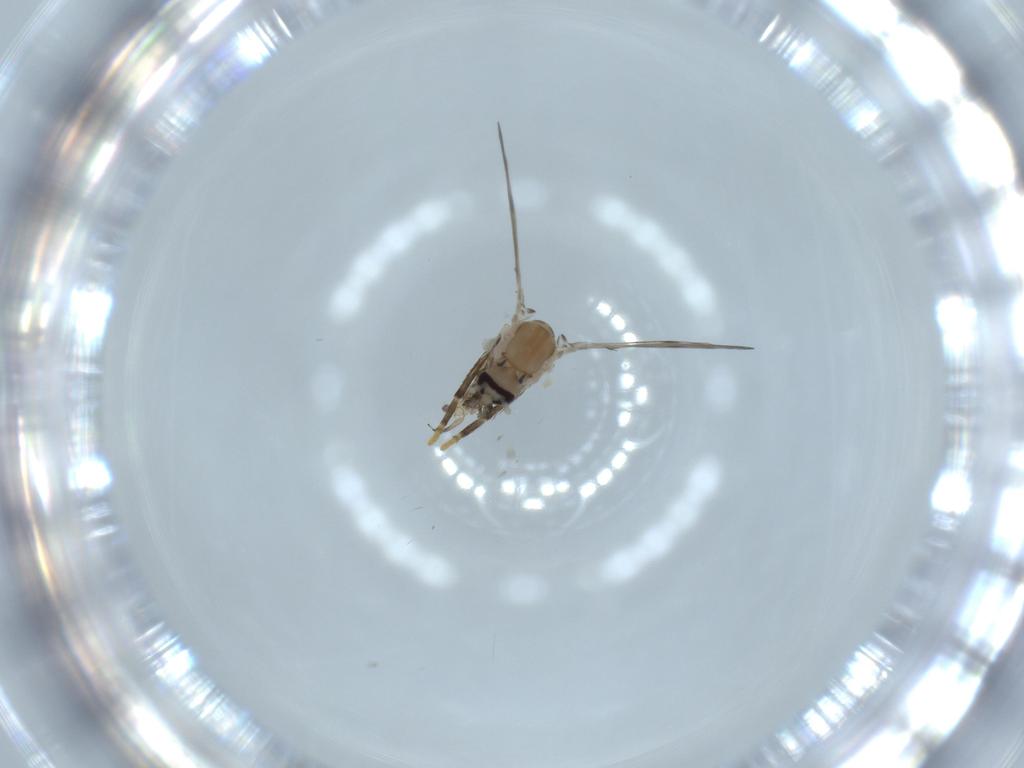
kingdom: Animalia
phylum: Arthropoda
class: Insecta
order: Diptera
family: Psychodidae
